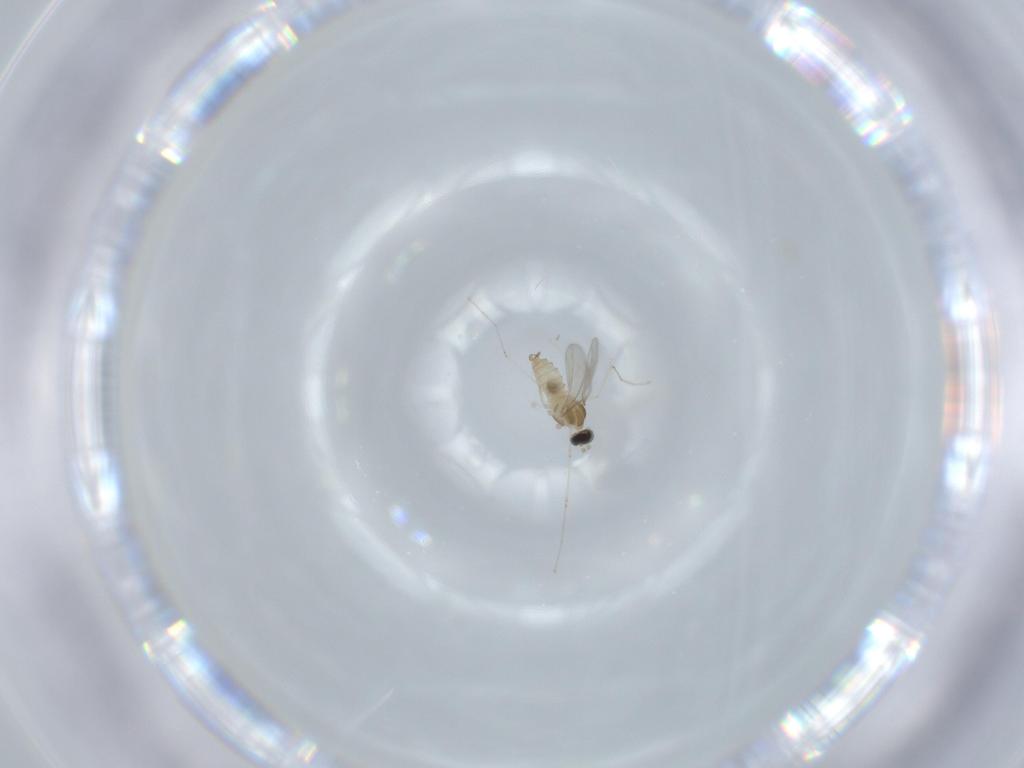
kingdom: Animalia
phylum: Arthropoda
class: Insecta
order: Diptera
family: Cecidomyiidae
